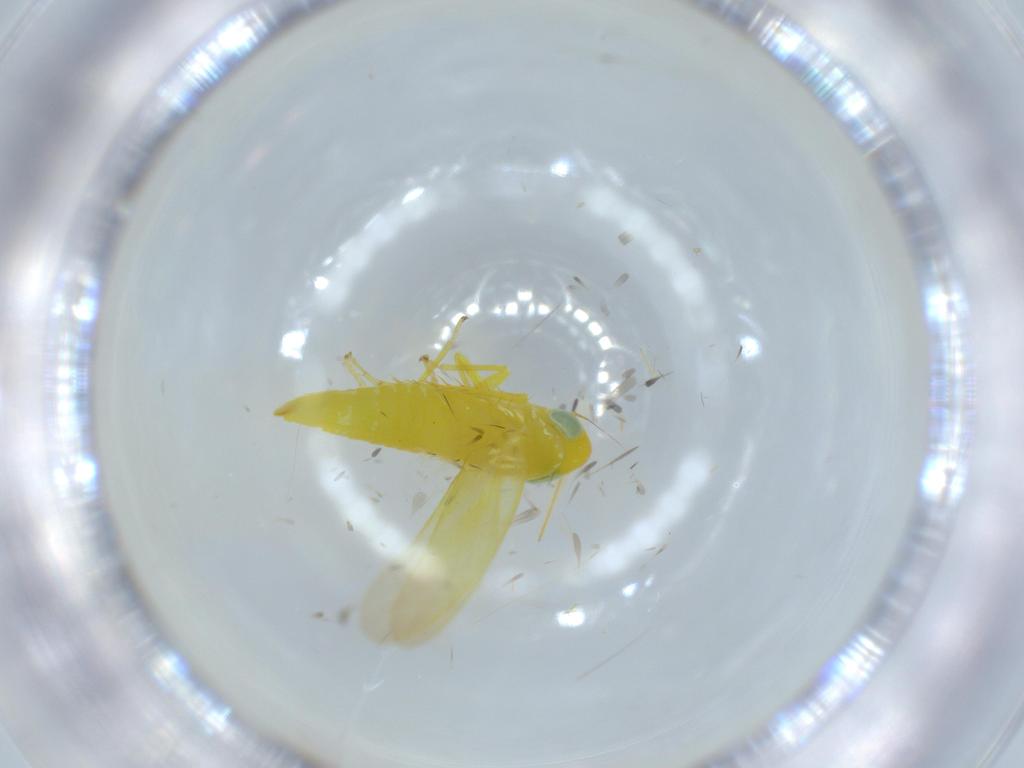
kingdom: Animalia
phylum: Arthropoda
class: Insecta
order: Hemiptera
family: Cicadellidae
